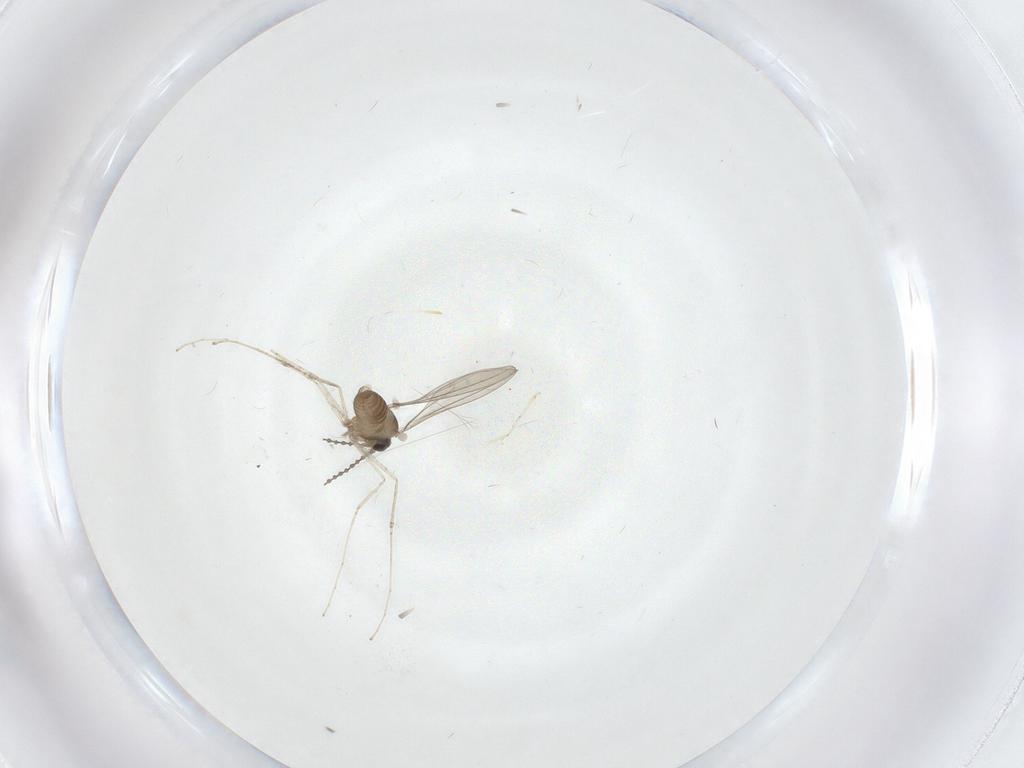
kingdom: Animalia
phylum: Arthropoda
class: Insecta
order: Diptera
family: Cecidomyiidae
